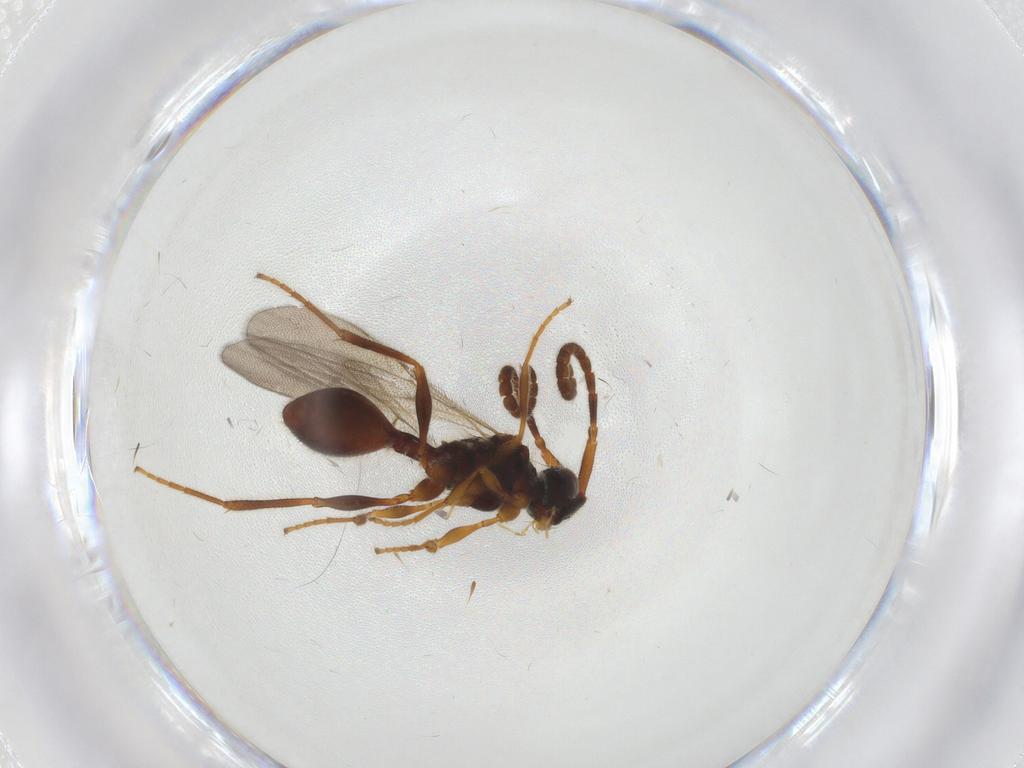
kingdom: Animalia
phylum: Arthropoda
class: Insecta
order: Hymenoptera
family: Diapriidae
